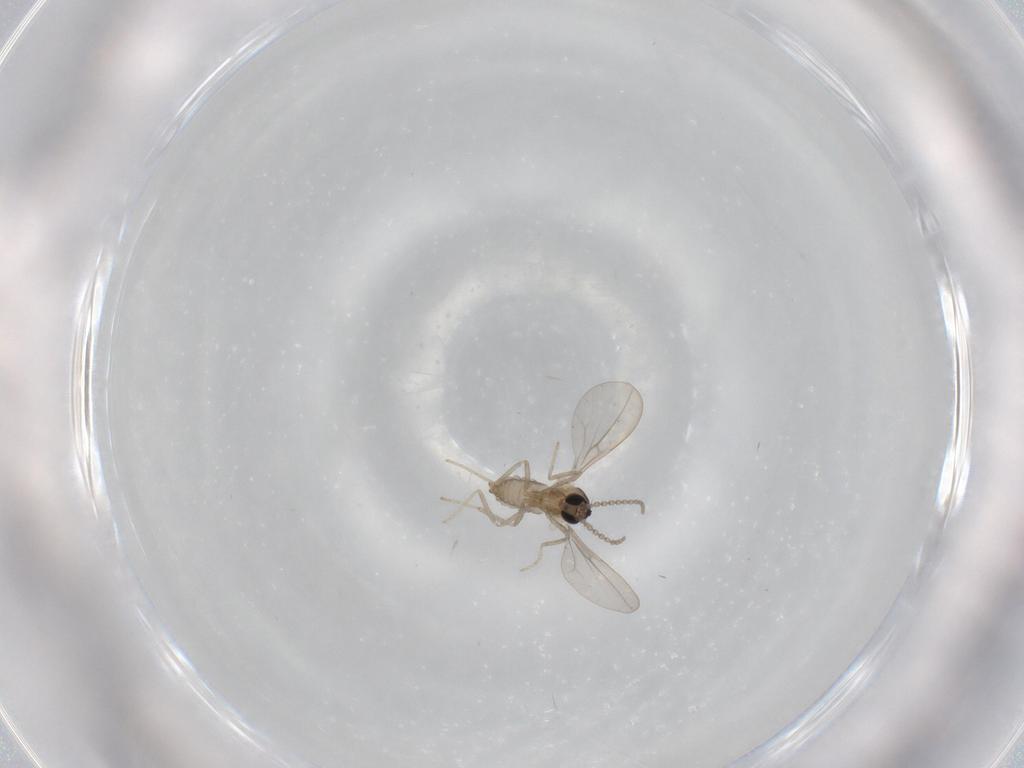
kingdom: Animalia
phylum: Arthropoda
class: Insecta
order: Diptera
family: Cecidomyiidae
